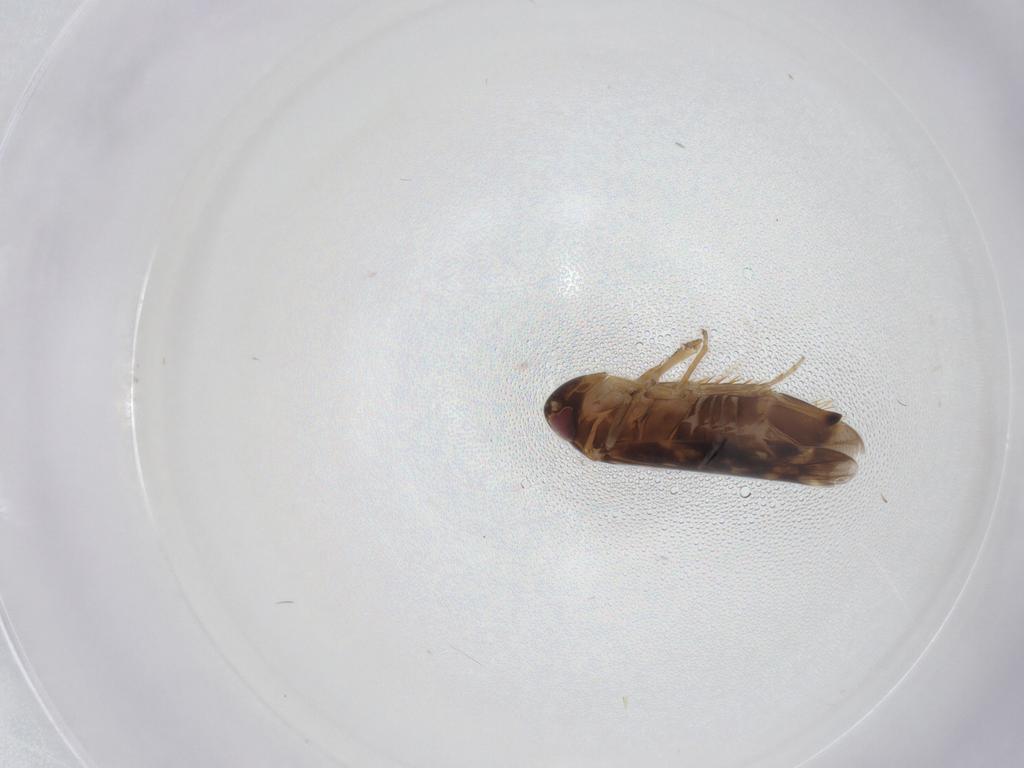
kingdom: Animalia
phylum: Arthropoda
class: Insecta
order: Hemiptera
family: Cicadellidae
